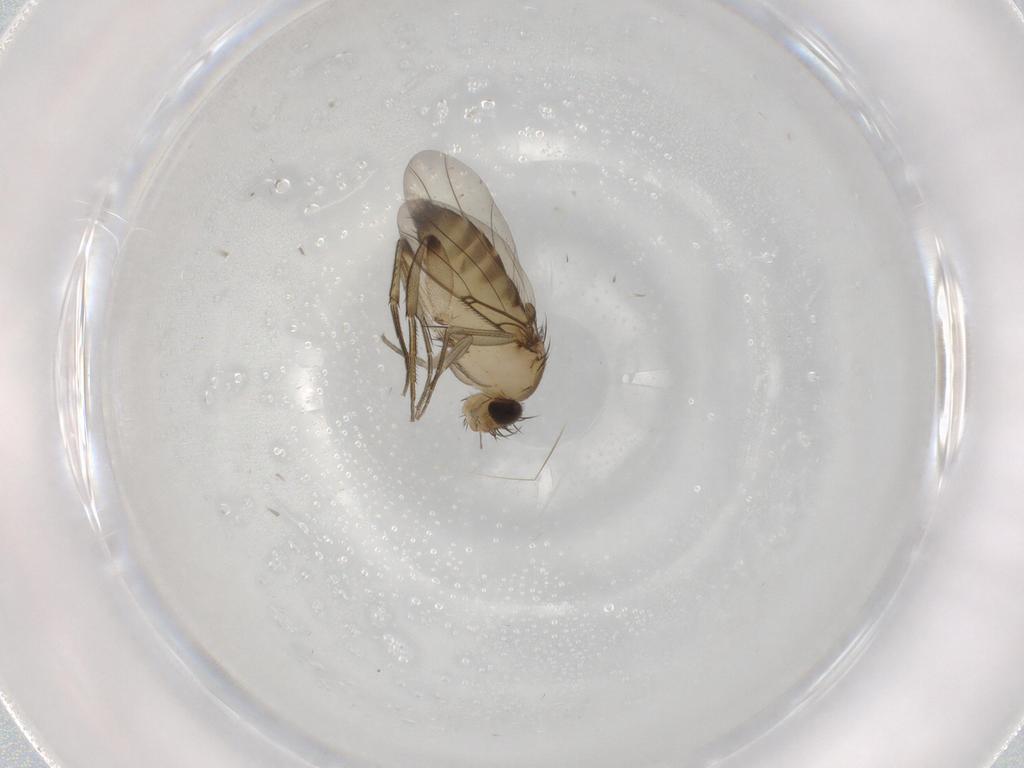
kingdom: Animalia
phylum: Arthropoda
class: Insecta
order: Diptera
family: Phoridae
